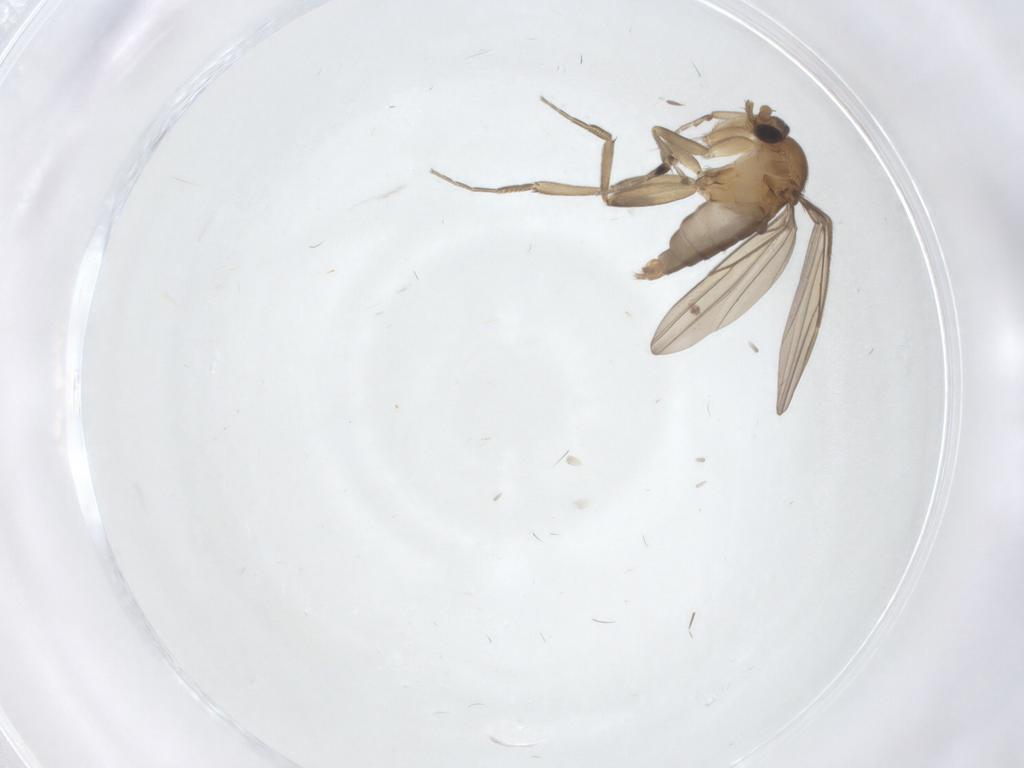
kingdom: Animalia
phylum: Arthropoda
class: Insecta
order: Diptera
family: Phoridae
